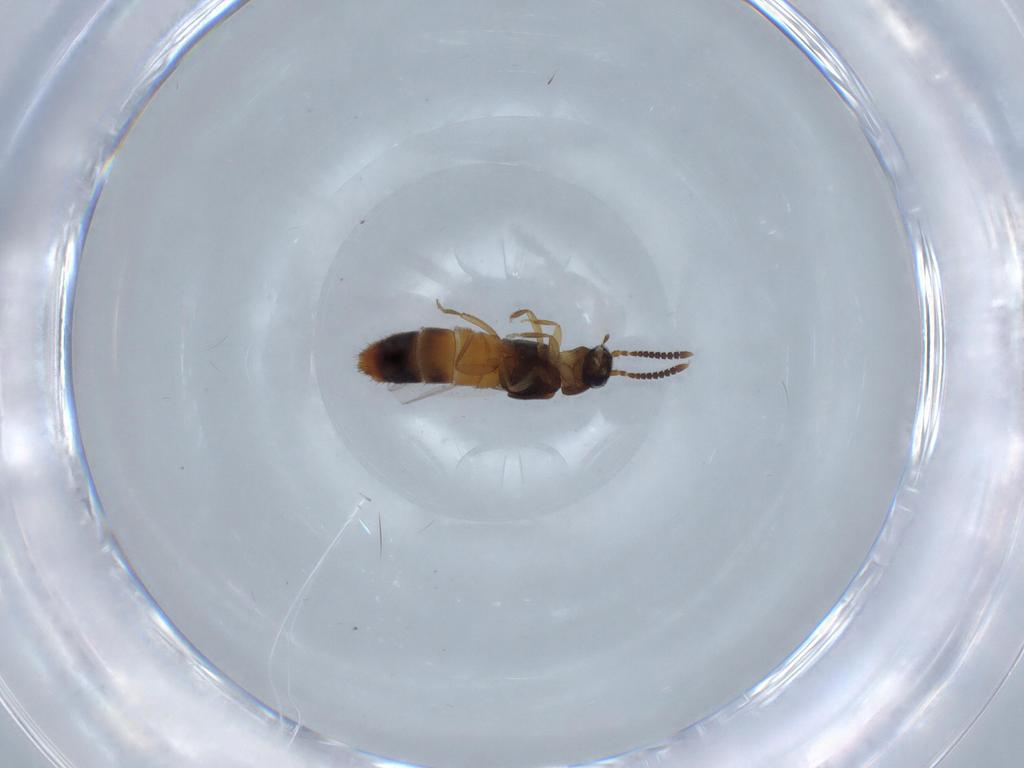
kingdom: Animalia
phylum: Arthropoda
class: Insecta
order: Coleoptera
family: Staphylinidae
